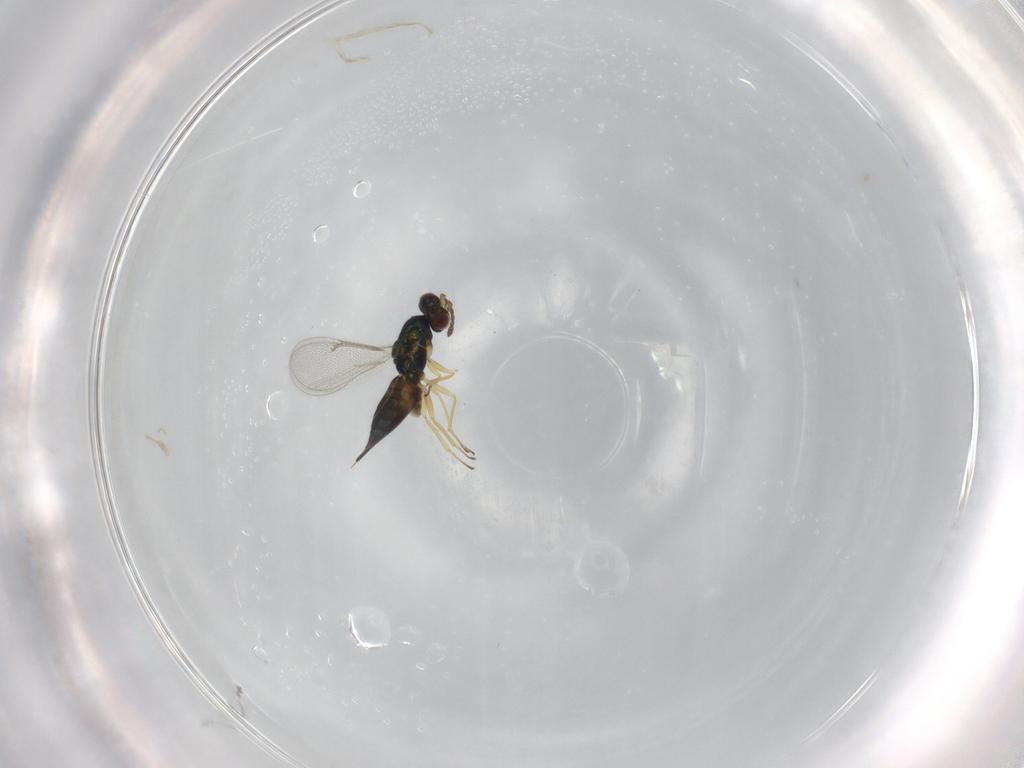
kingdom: Animalia
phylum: Arthropoda
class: Insecta
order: Hymenoptera
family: Eulophidae
